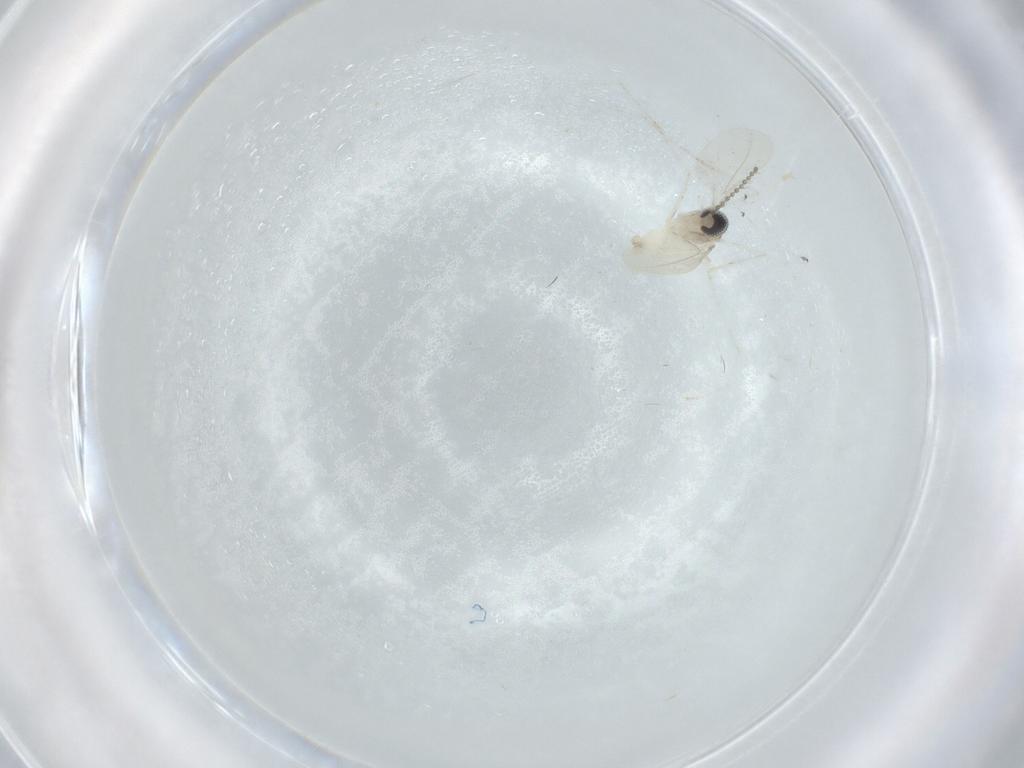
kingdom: Animalia
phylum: Arthropoda
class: Insecta
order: Diptera
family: Cecidomyiidae
